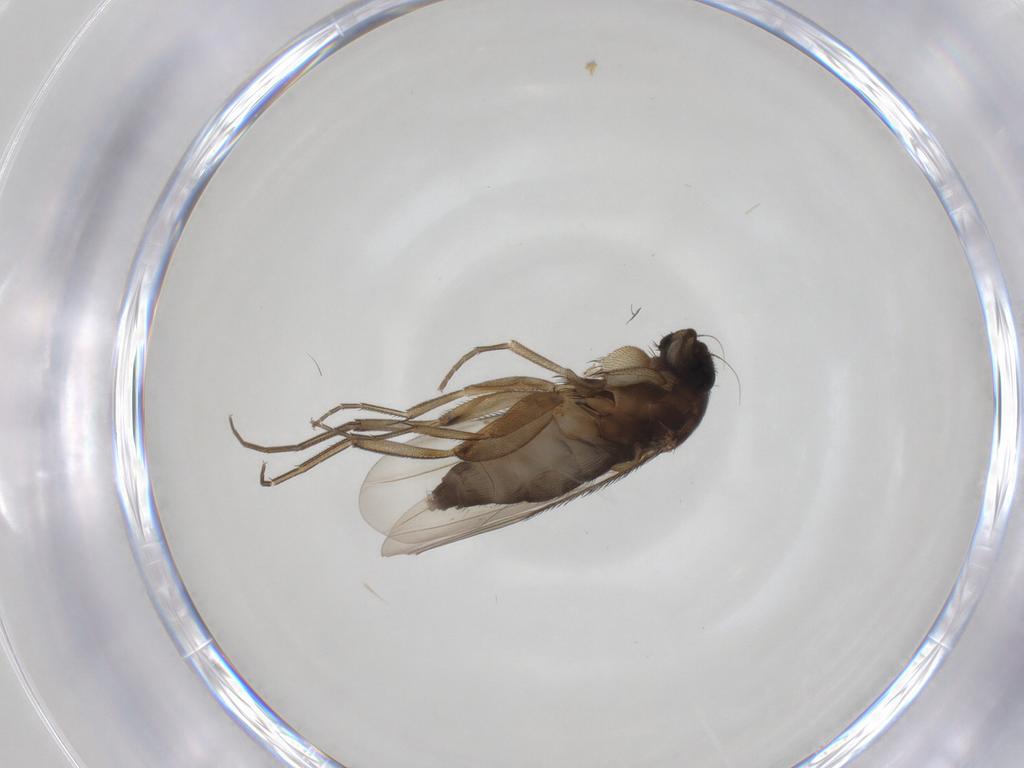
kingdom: Animalia
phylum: Arthropoda
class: Insecta
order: Diptera
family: Phoridae
